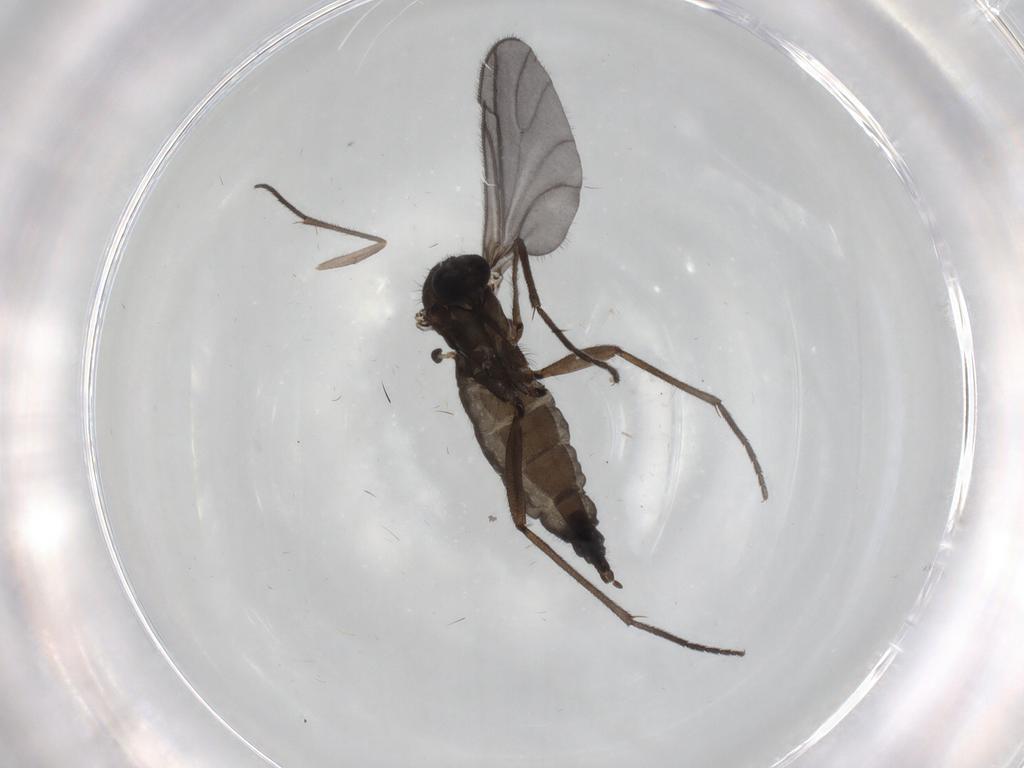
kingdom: Animalia
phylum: Arthropoda
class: Insecta
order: Diptera
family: Sciaridae
